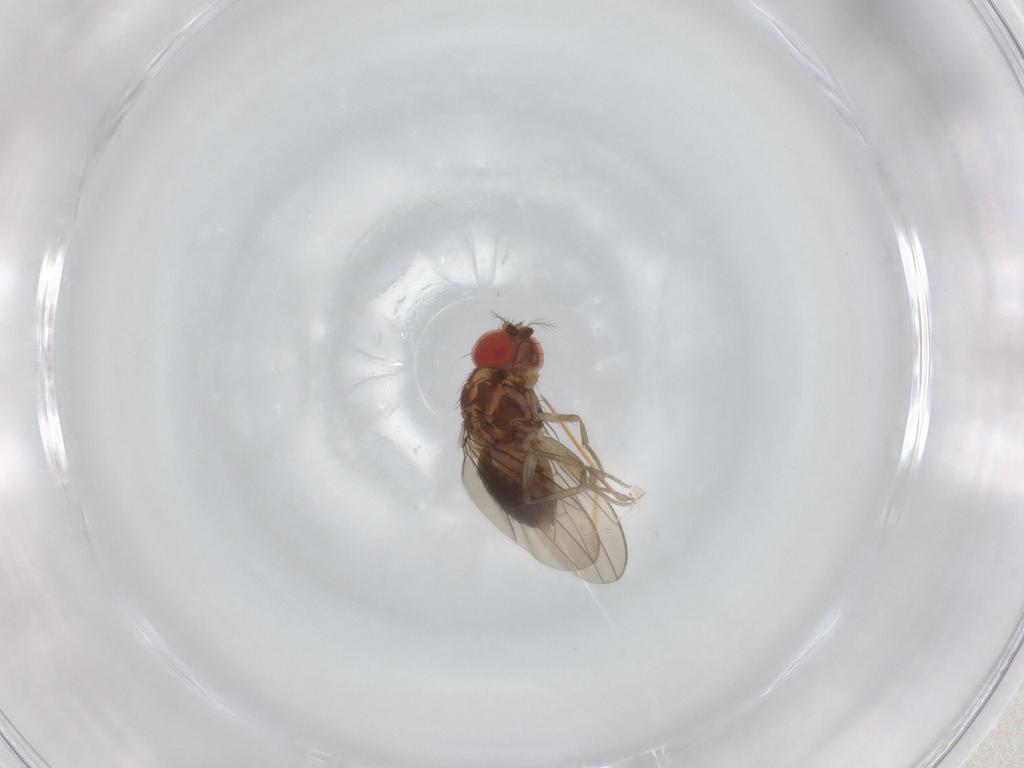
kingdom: Animalia
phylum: Arthropoda
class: Insecta
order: Diptera
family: Drosophilidae
